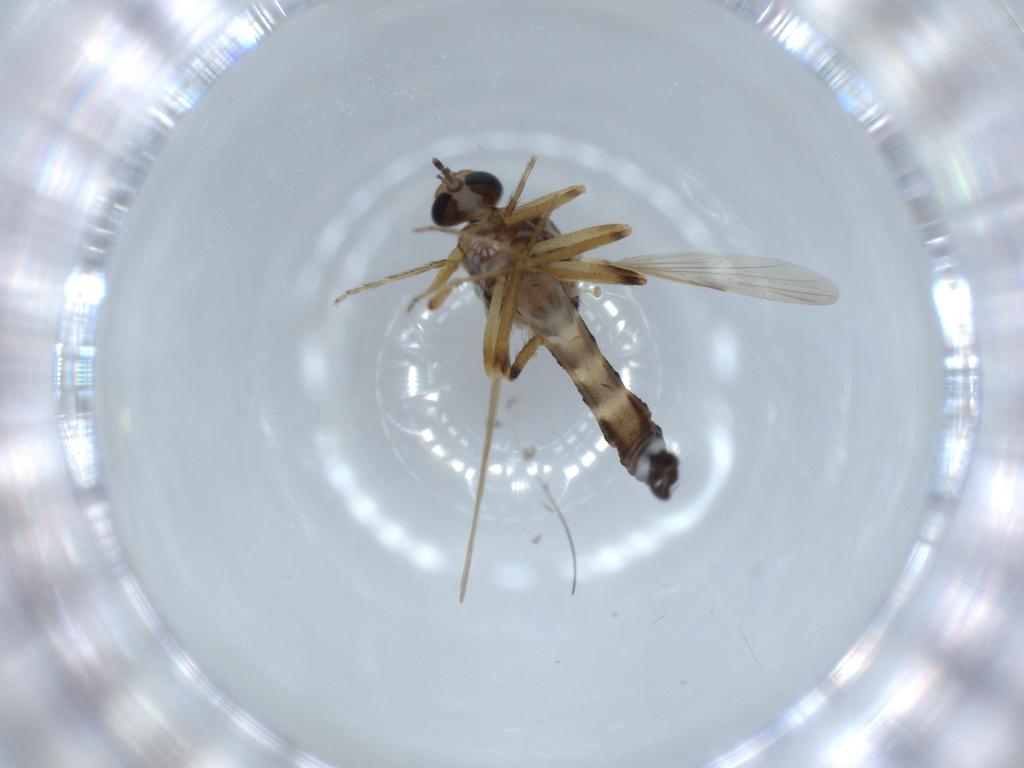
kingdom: Animalia
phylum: Arthropoda
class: Insecta
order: Diptera
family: Ceratopogonidae
